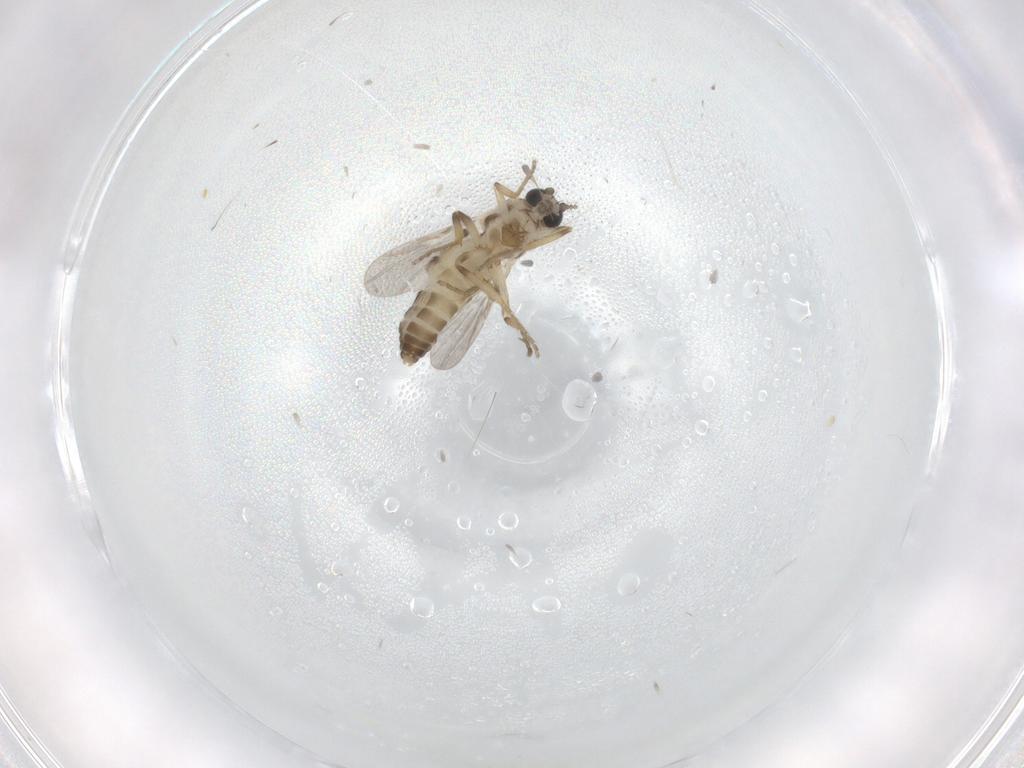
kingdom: Animalia
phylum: Arthropoda
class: Insecta
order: Diptera
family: Ceratopogonidae
